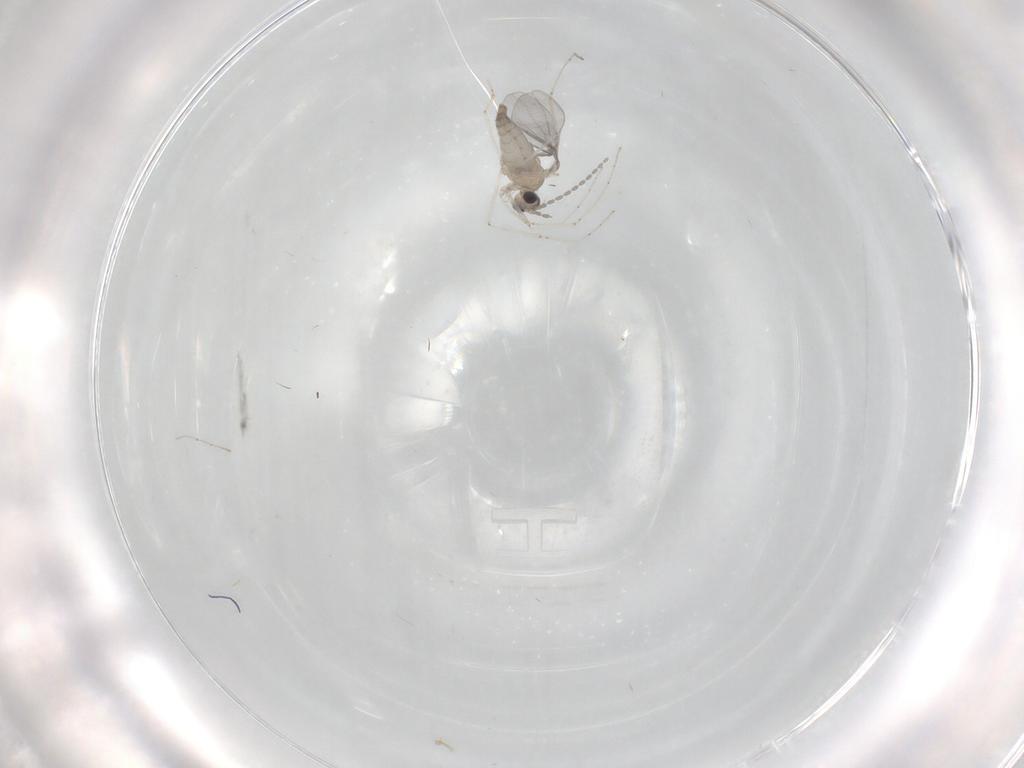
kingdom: Animalia
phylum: Arthropoda
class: Insecta
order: Diptera
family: Cecidomyiidae
